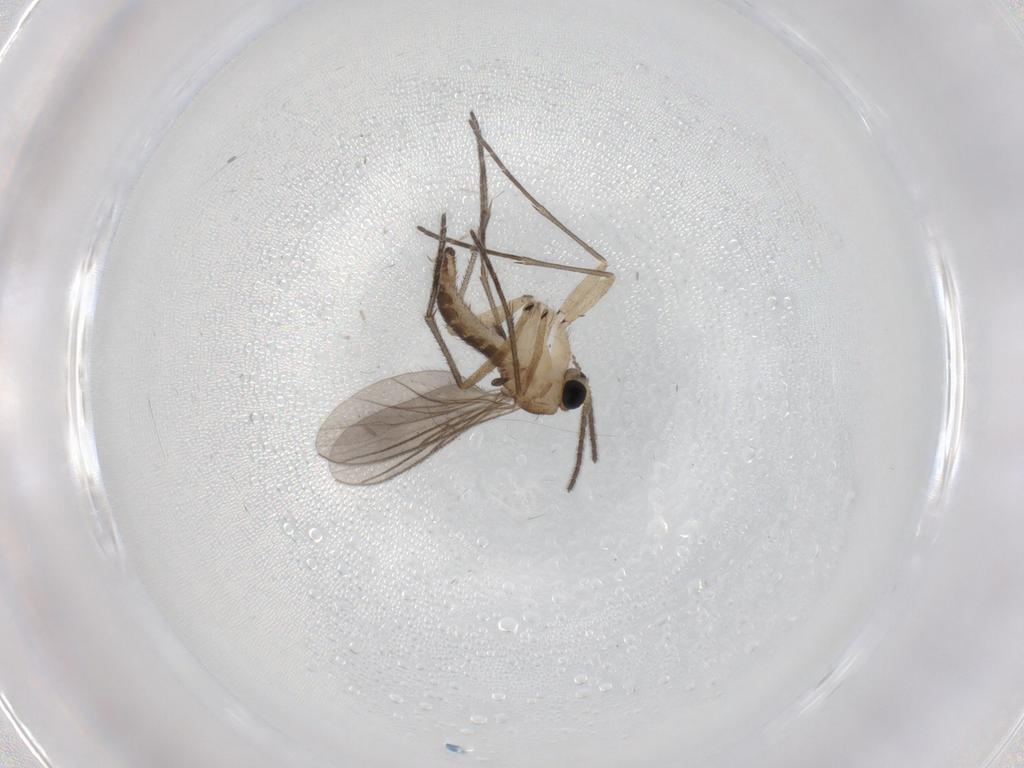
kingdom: Animalia
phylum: Arthropoda
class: Insecta
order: Diptera
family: Sciaridae
